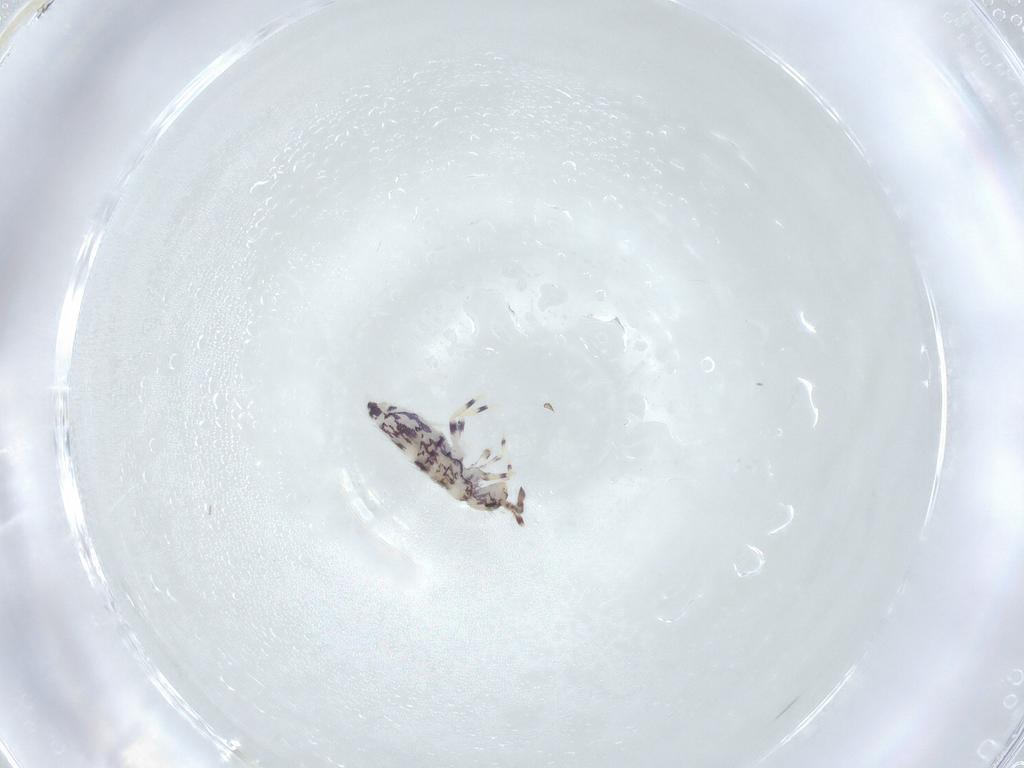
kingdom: Animalia
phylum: Arthropoda
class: Collembola
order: Entomobryomorpha
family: Entomobryidae
